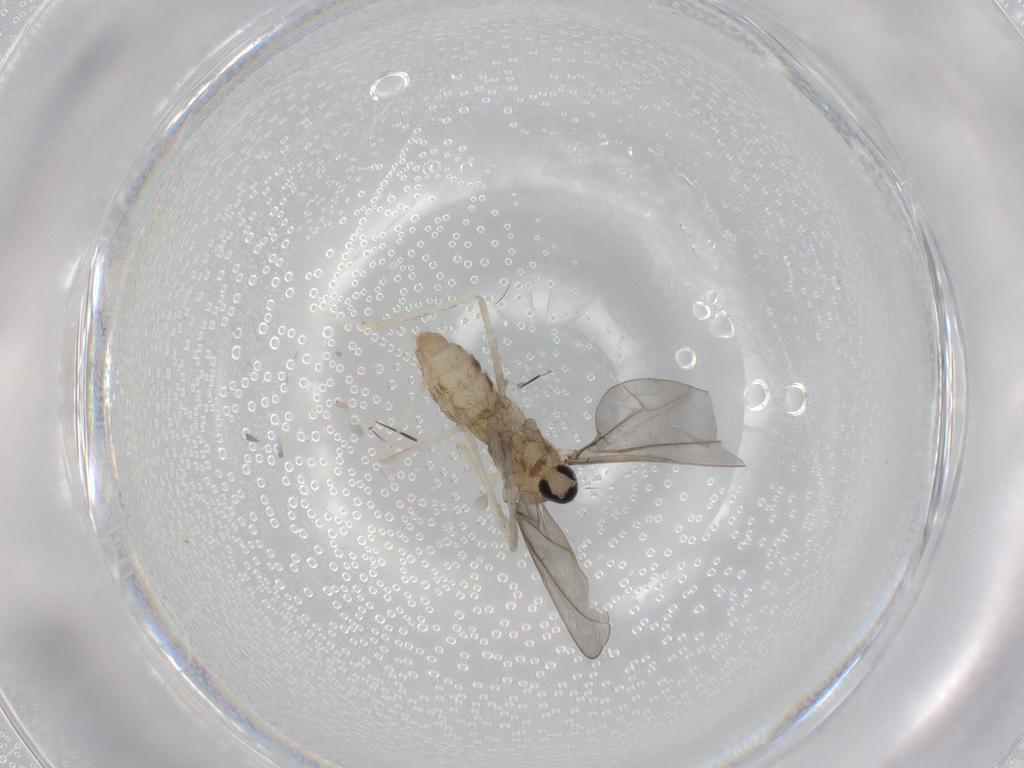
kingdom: Animalia
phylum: Arthropoda
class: Insecta
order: Diptera
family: Cecidomyiidae
